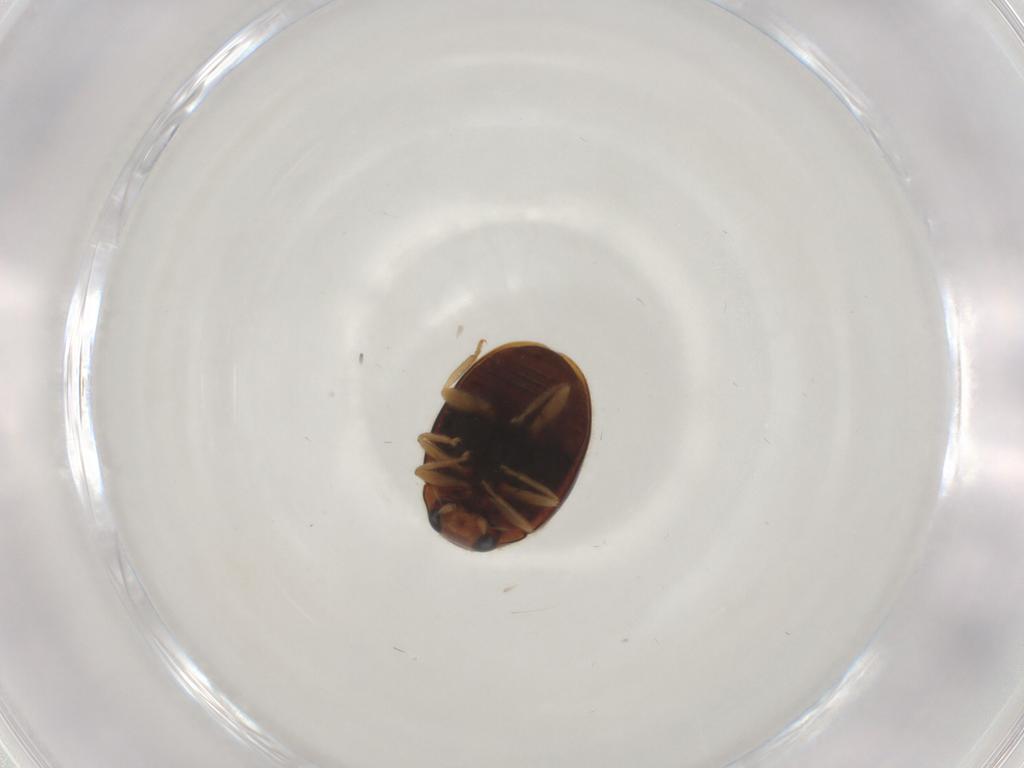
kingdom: Animalia
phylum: Arthropoda
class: Insecta
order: Coleoptera
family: Coccinellidae
